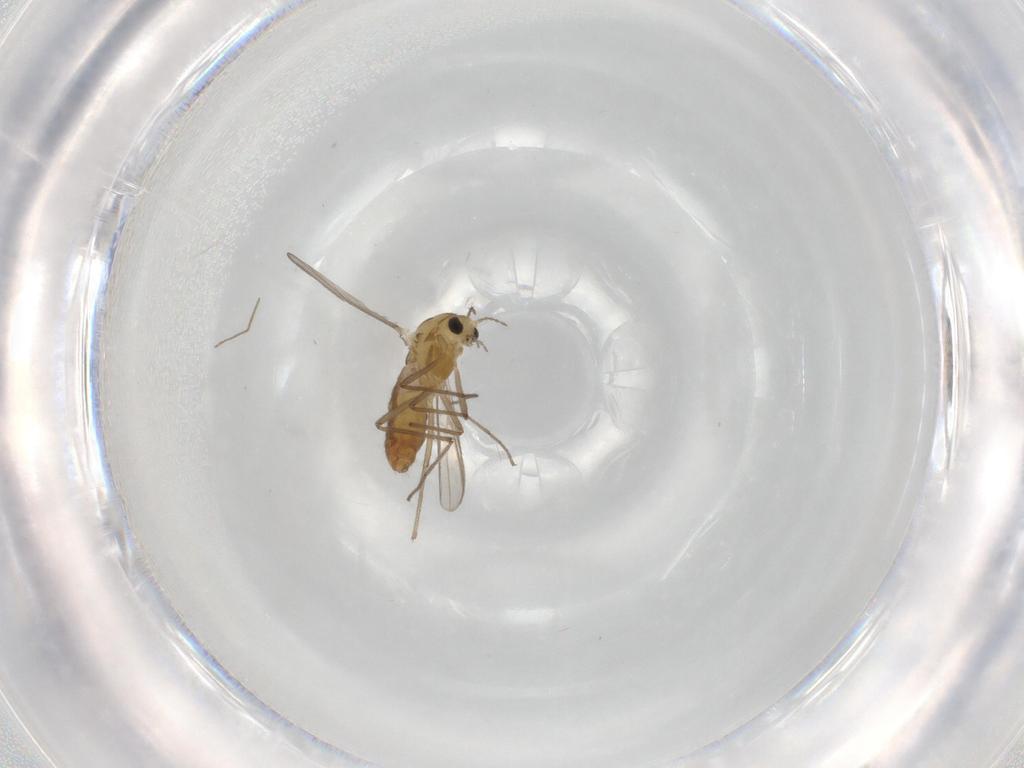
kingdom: Animalia
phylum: Arthropoda
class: Insecta
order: Diptera
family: Chironomidae
